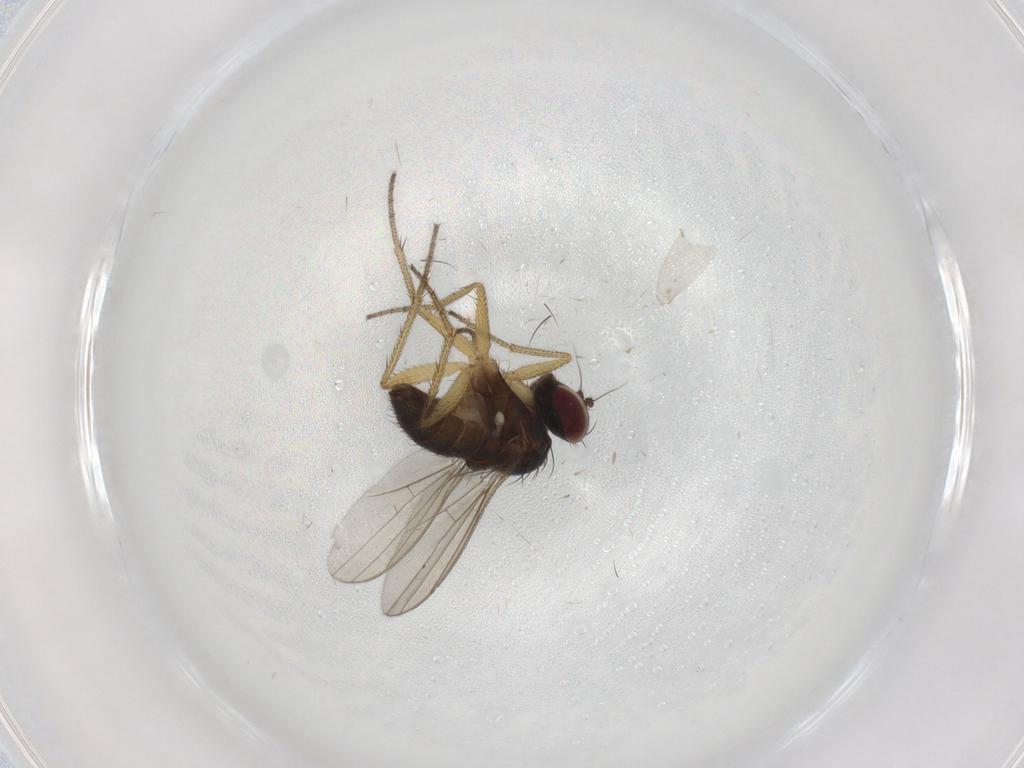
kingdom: Animalia
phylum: Arthropoda
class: Insecta
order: Diptera
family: Dolichopodidae
